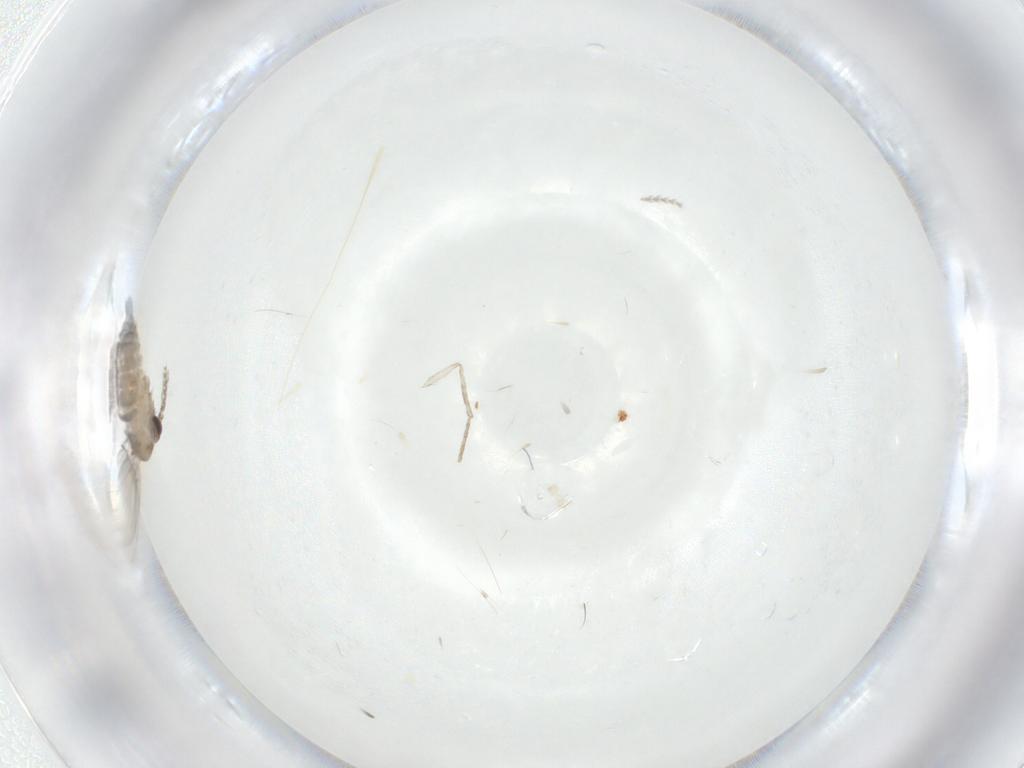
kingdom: Animalia
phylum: Arthropoda
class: Insecta
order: Diptera
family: Psychodidae
